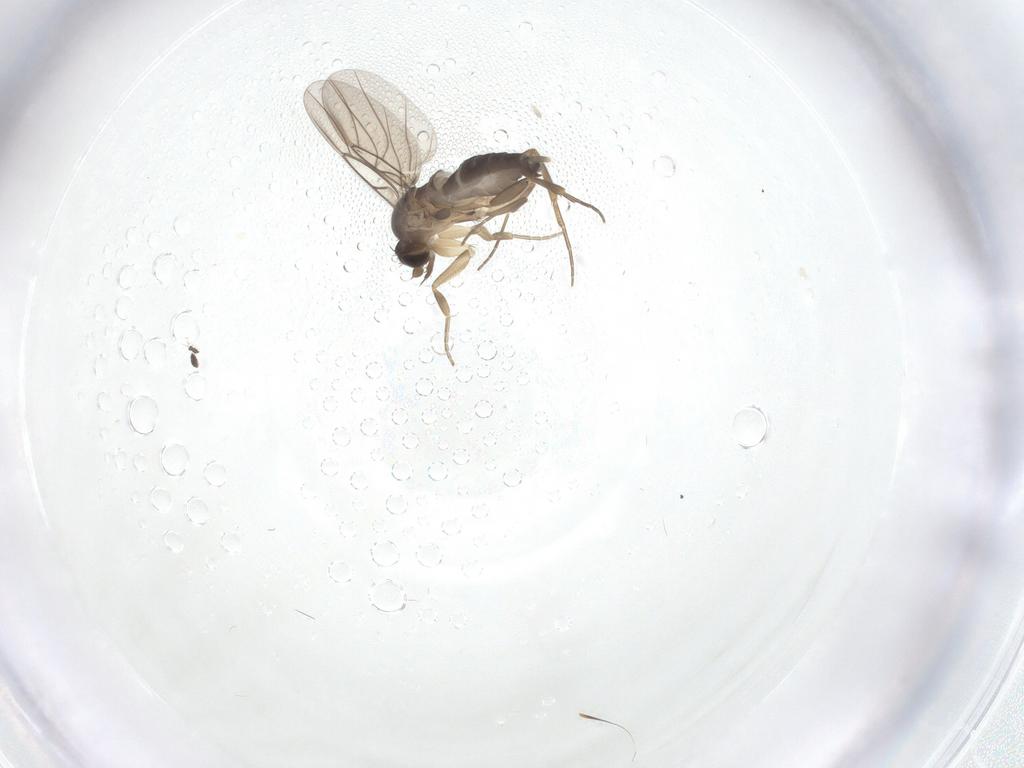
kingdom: Animalia
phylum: Arthropoda
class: Insecta
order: Diptera
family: Phoridae
